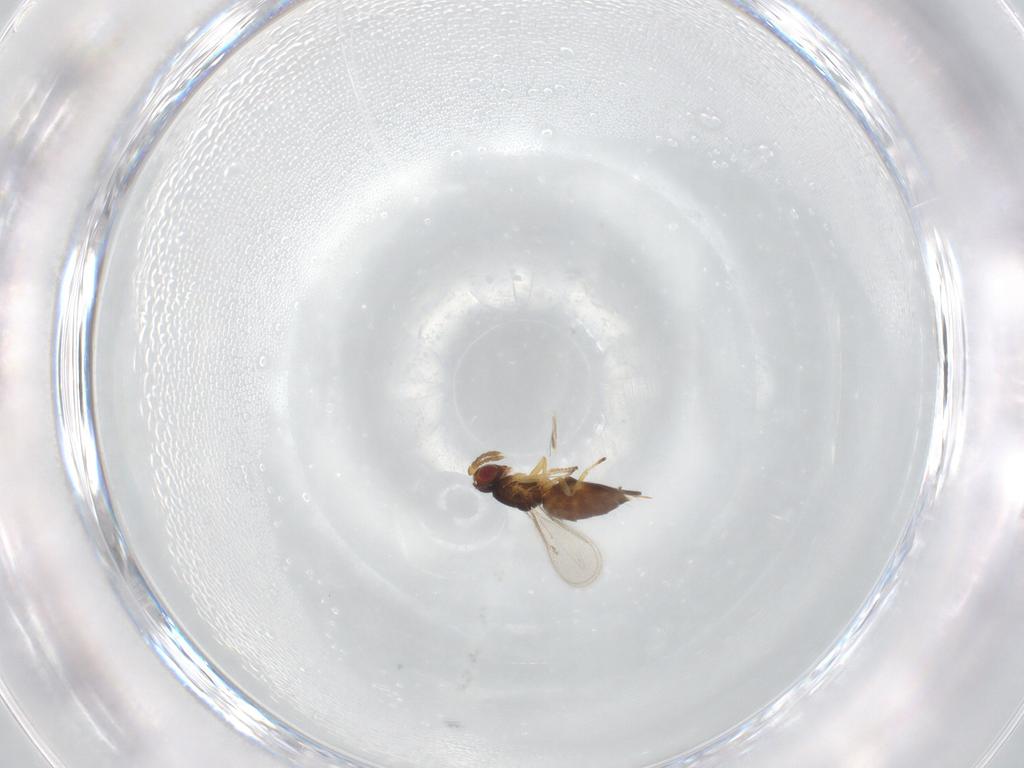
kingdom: Animalia
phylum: Arthropoda
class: Insecta
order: Hymenoptera
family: Eulophidae
